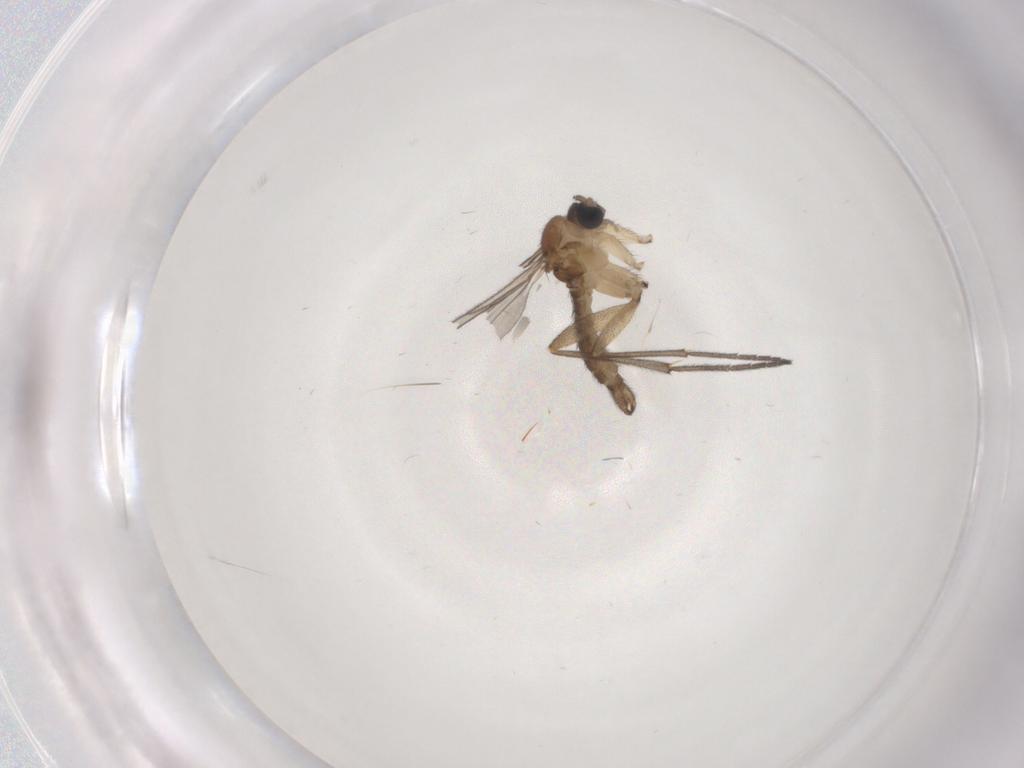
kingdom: Animalia
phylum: Arthropoda
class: Insecta
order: Diptera
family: Sciaridae
